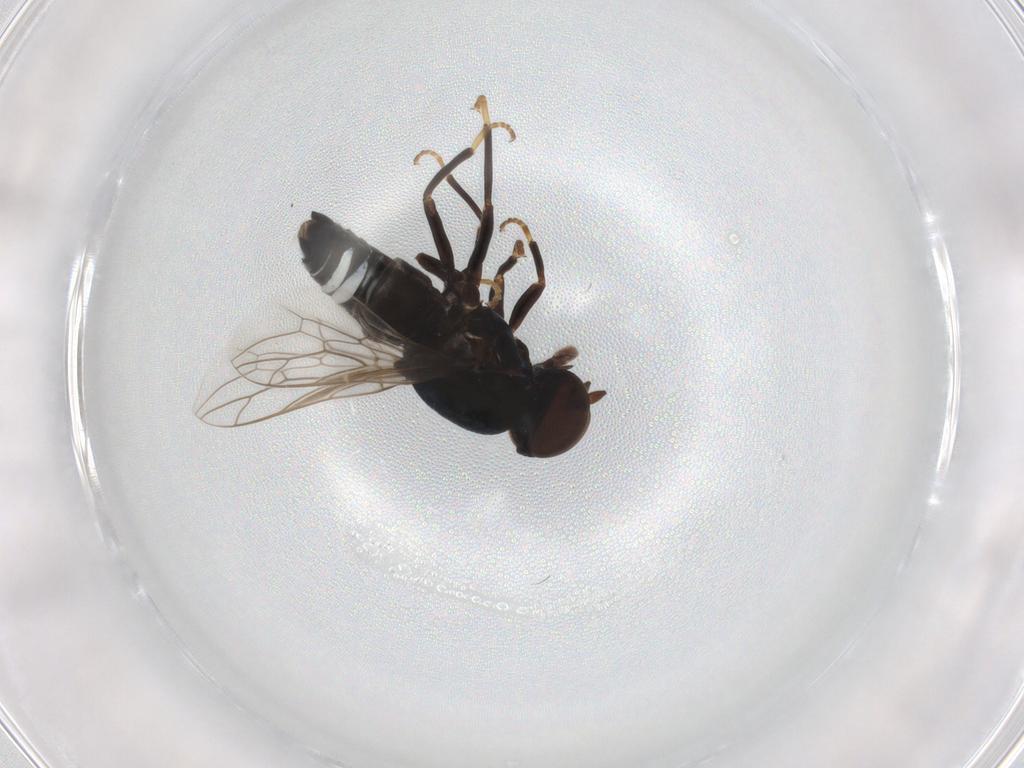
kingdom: Animalia
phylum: Arthropoda
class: Insecta
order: Diptera
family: Scenopinidae
